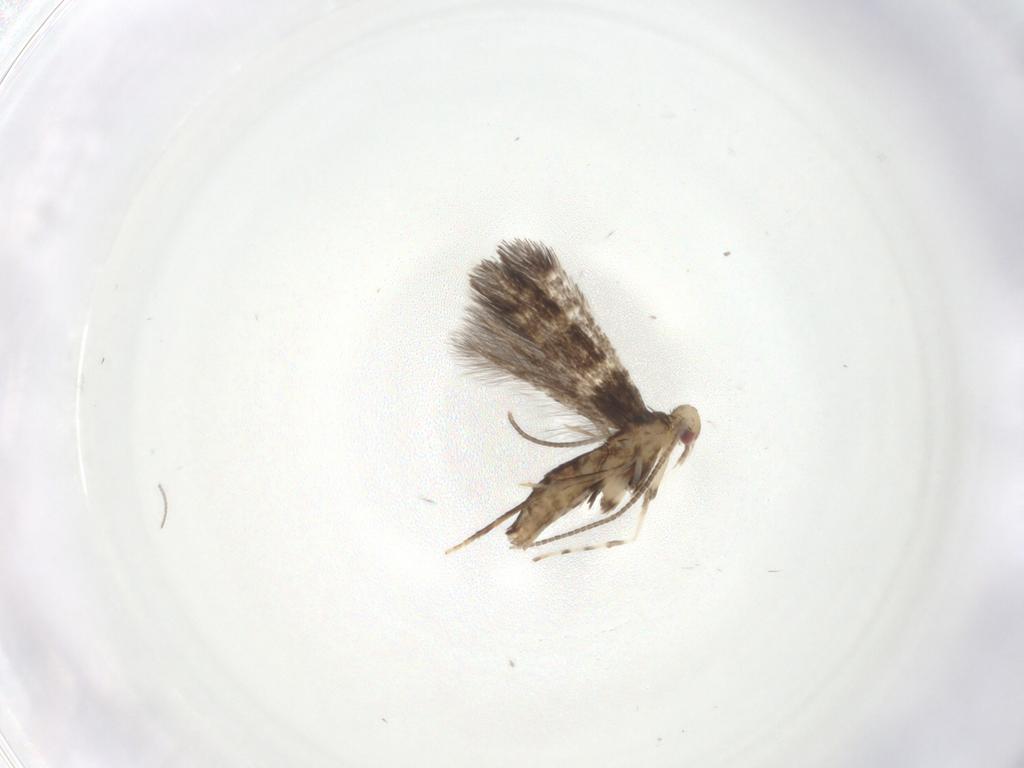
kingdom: Animalia
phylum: Arthropoda
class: Insecta
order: Lepidoptera
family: Gracillariidae
